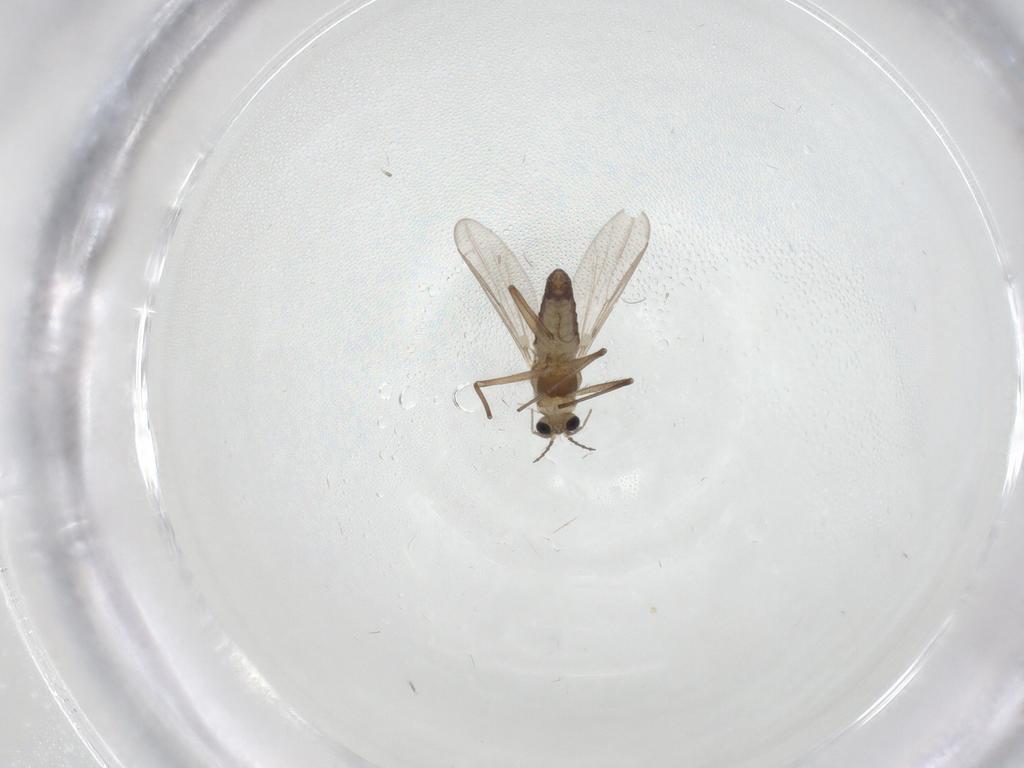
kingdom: Animalia
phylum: Arthropoda
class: Insecta
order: Diptera
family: Chironomidae
